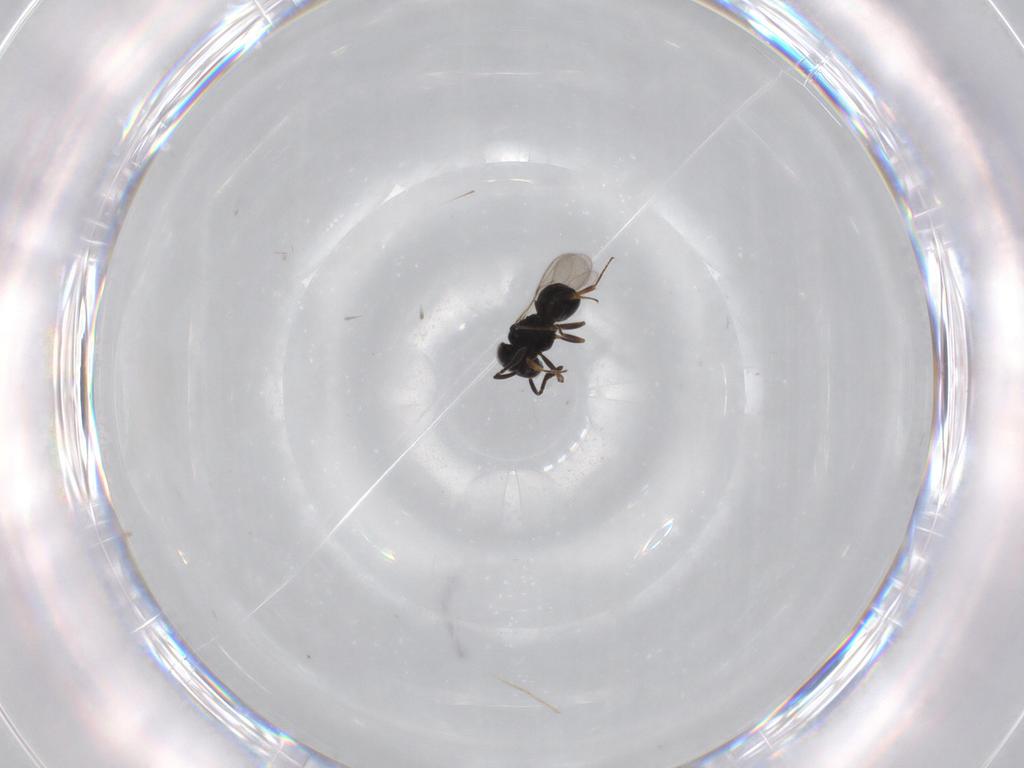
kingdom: Animalia
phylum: Arthropoda
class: Insecta
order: Hymenoptera
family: Scelionidae
